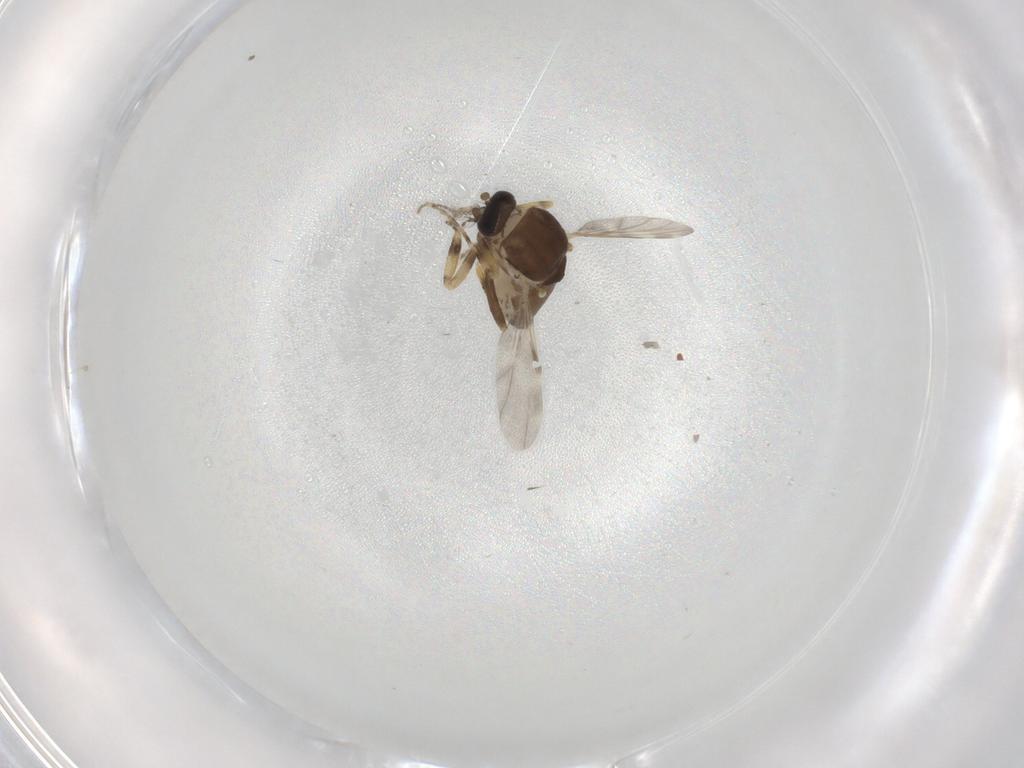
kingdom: Animalia
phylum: Arthropoda
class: Insecta
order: Diptera
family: Ceratopogonidae
